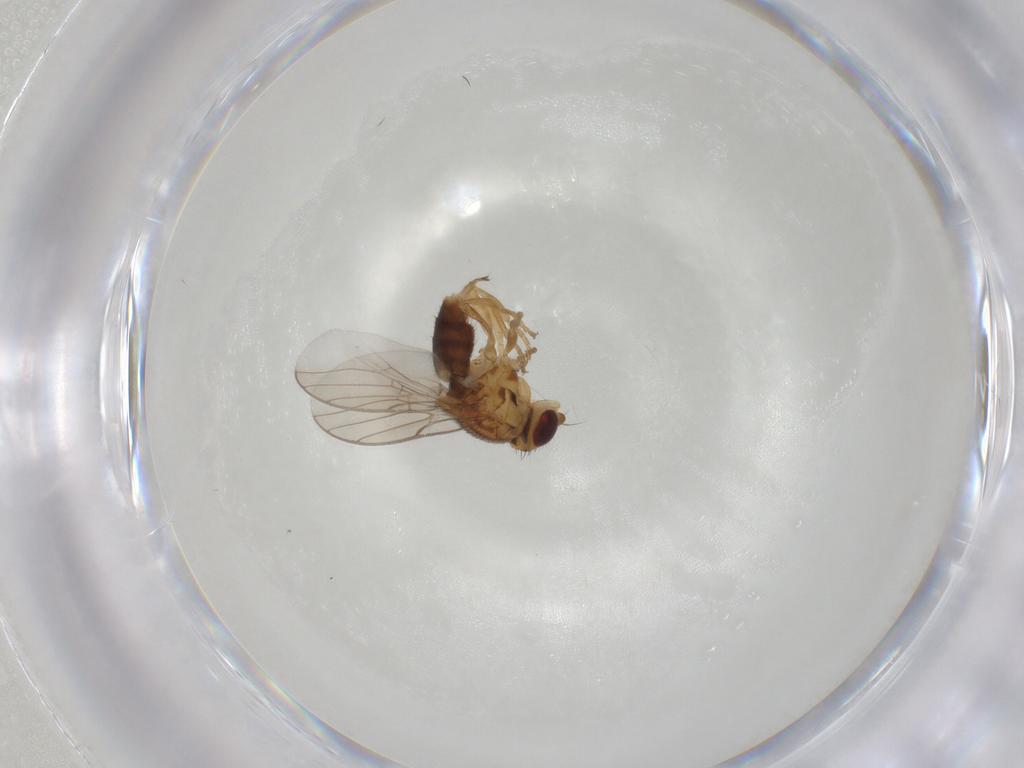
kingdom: Animalia
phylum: Arthropoda
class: Insecta
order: Diptera
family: Chloropidae
